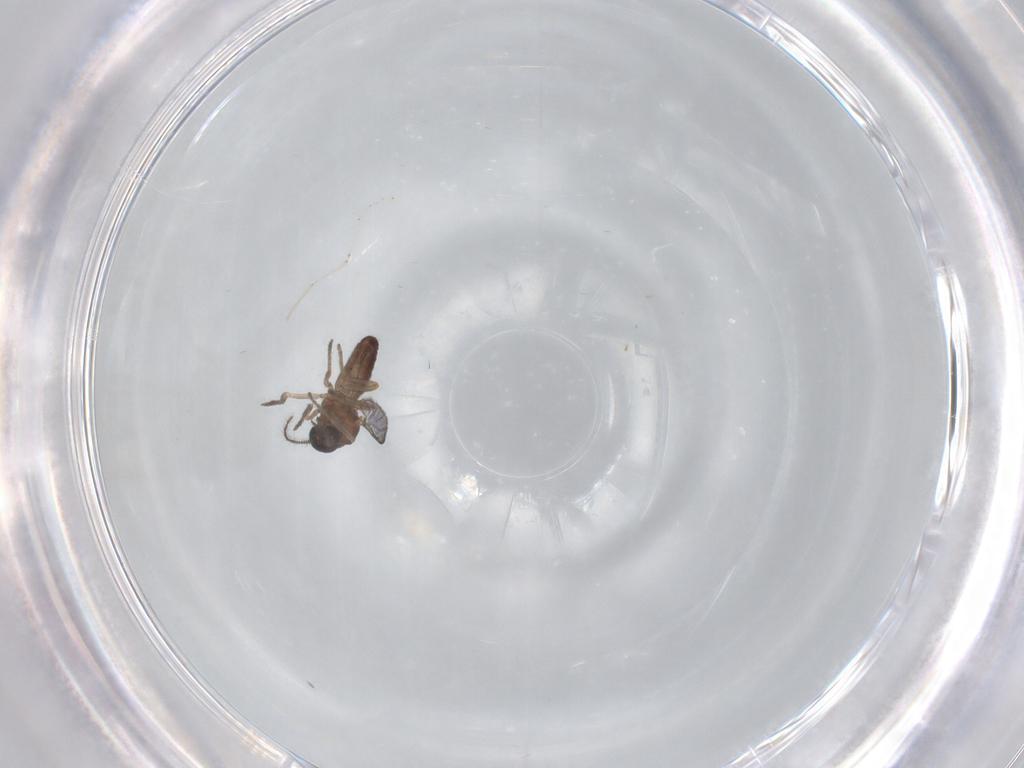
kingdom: Animalia
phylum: Arthropoda
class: Insecta
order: Diptera
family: Ceratopogonidae
